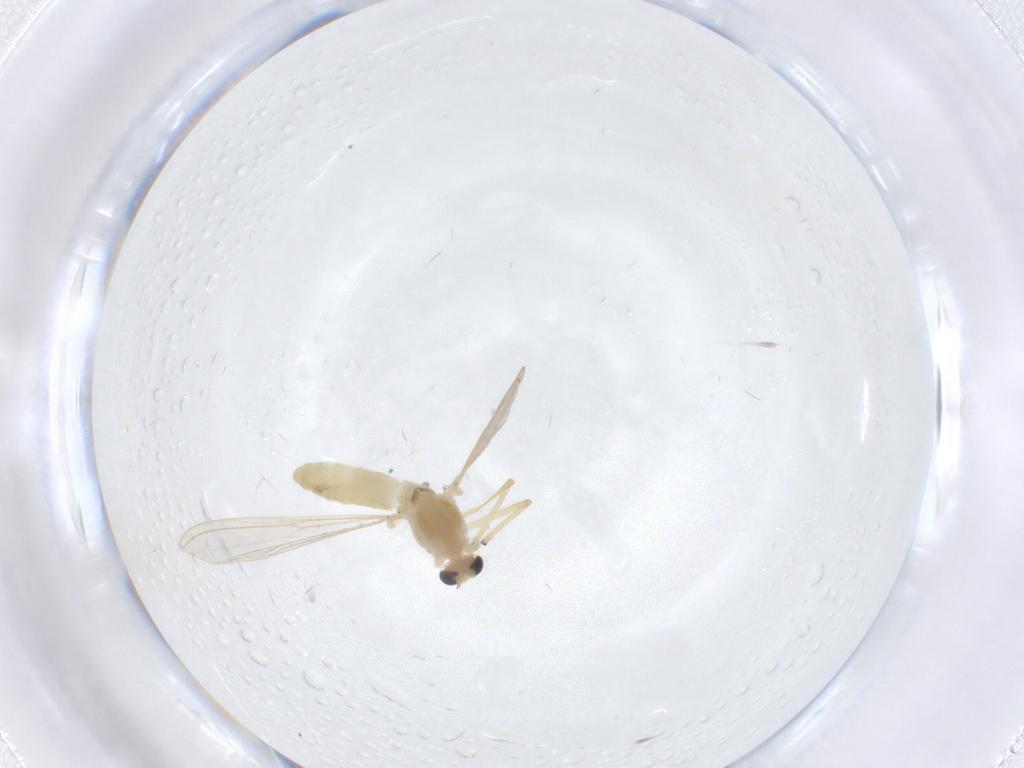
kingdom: Animalia
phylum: Arthropoda
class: Insecta
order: Diptera
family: Chironomidae
